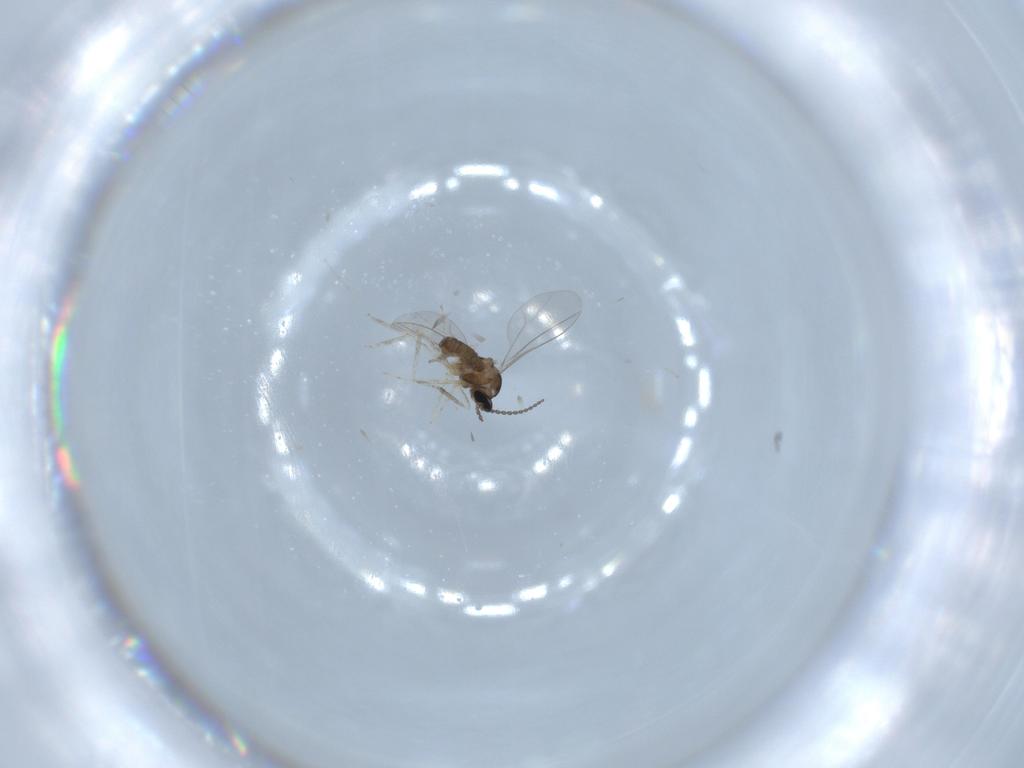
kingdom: Animalia
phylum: Arthropoda
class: Insecta
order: Diptera
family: Cecidomyiidae
